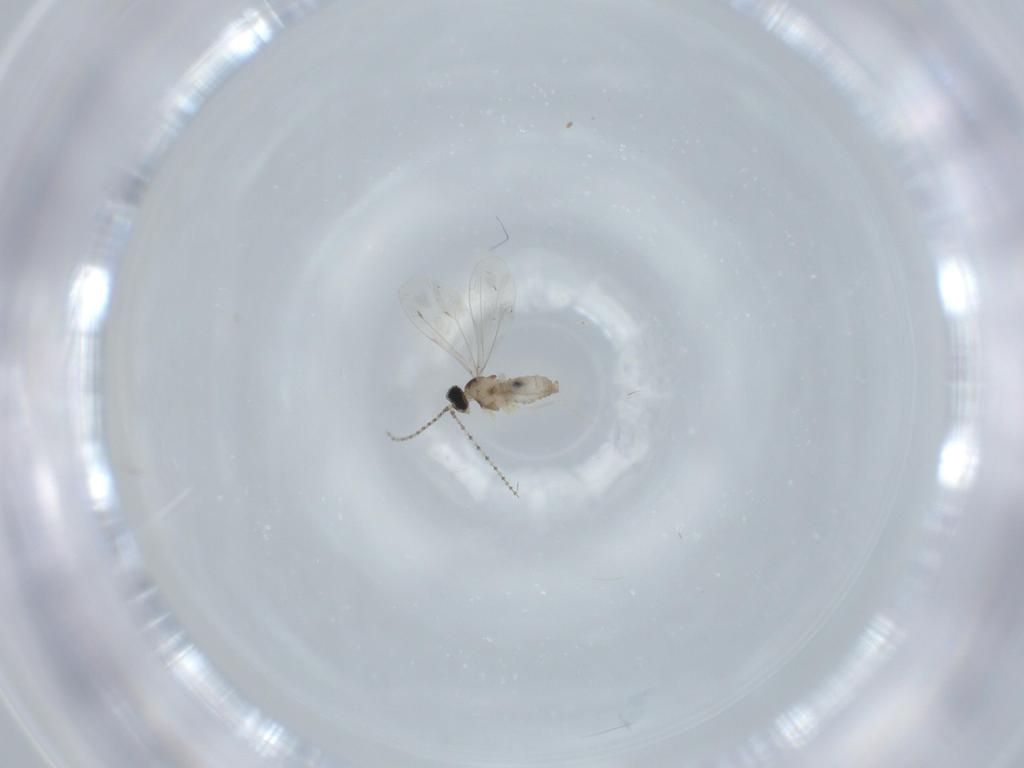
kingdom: Animalia
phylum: Arthropoda
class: Insecta
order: Diptera
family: Cecidomyiidae
